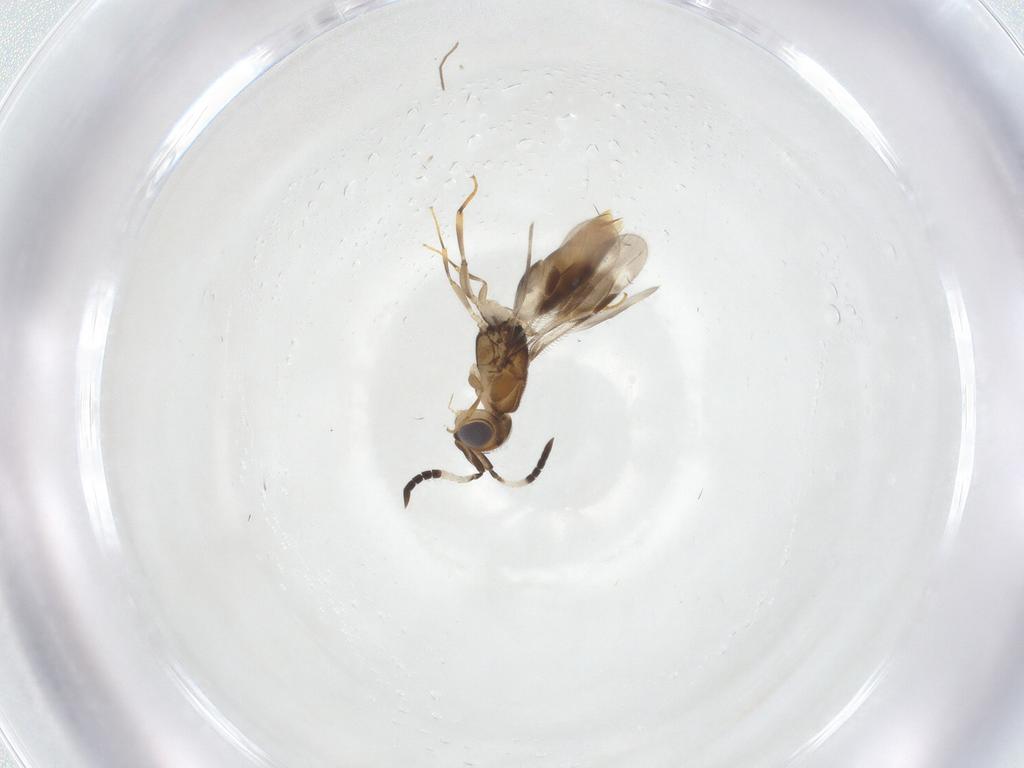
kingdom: Animalia
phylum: Arthropoda
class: Insecta
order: Hymenoptera
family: Megaspilidae
